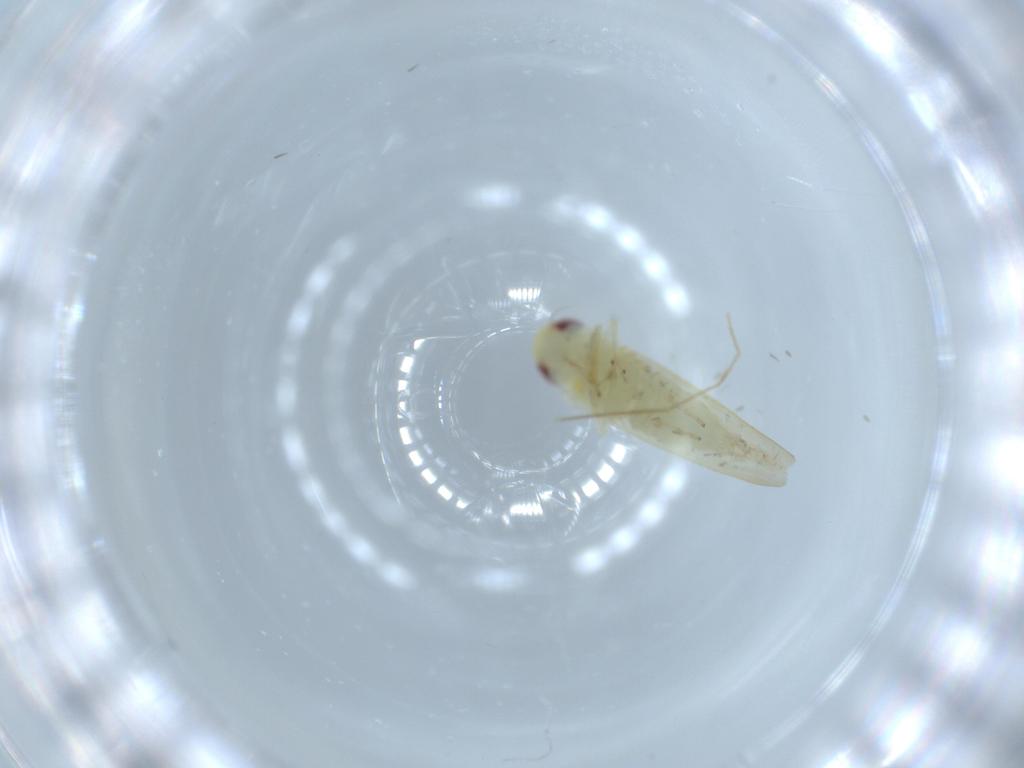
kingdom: Animalia
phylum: Arthropoda
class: Insecta
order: Hemiptera
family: Cicadellidae
